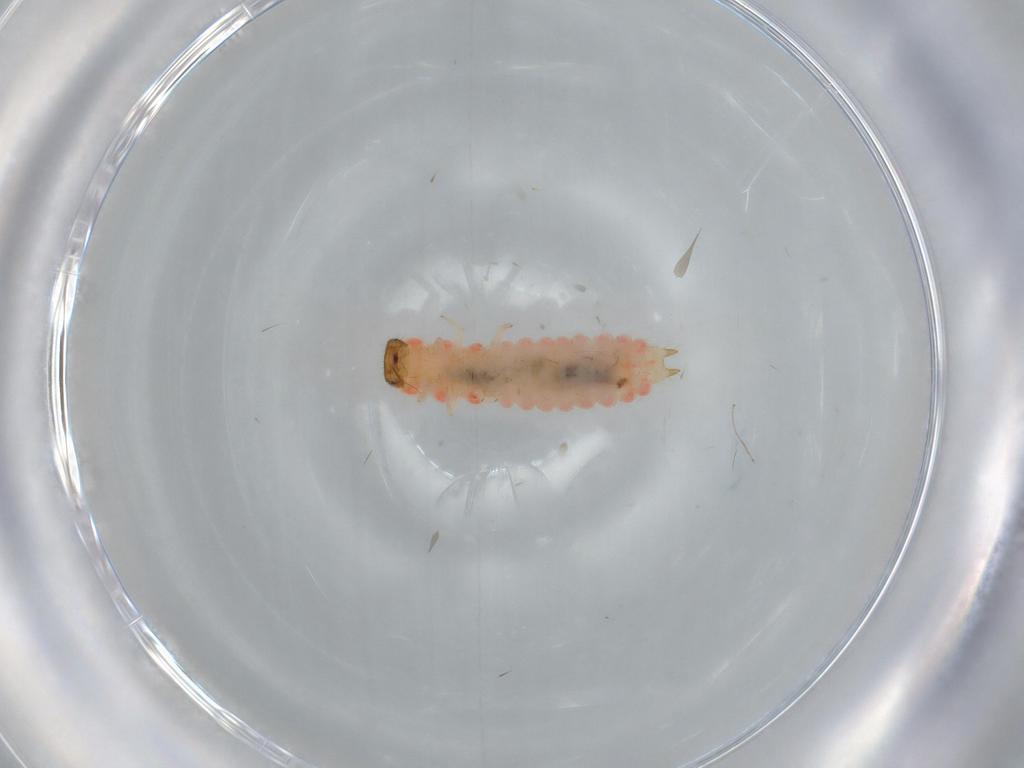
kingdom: Animalia
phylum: Arthropoda
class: Insecta
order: Coleoptera
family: Melyridae
